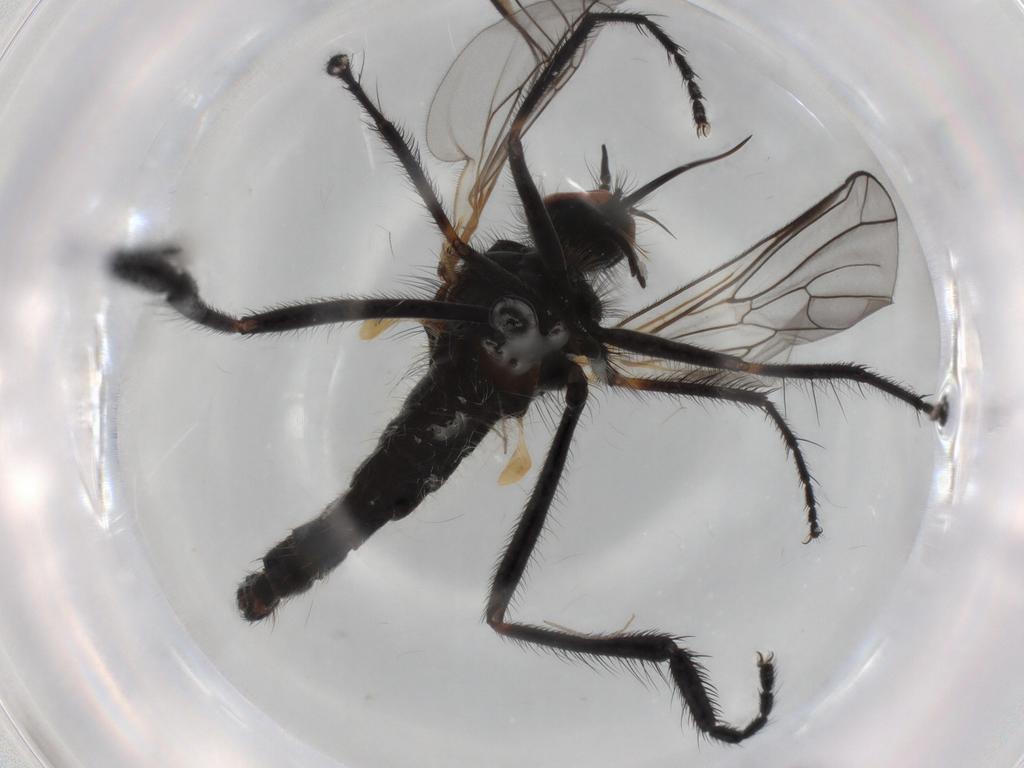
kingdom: Animalia
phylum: Arthropoda
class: Insecta
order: Diptera
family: Empididae
